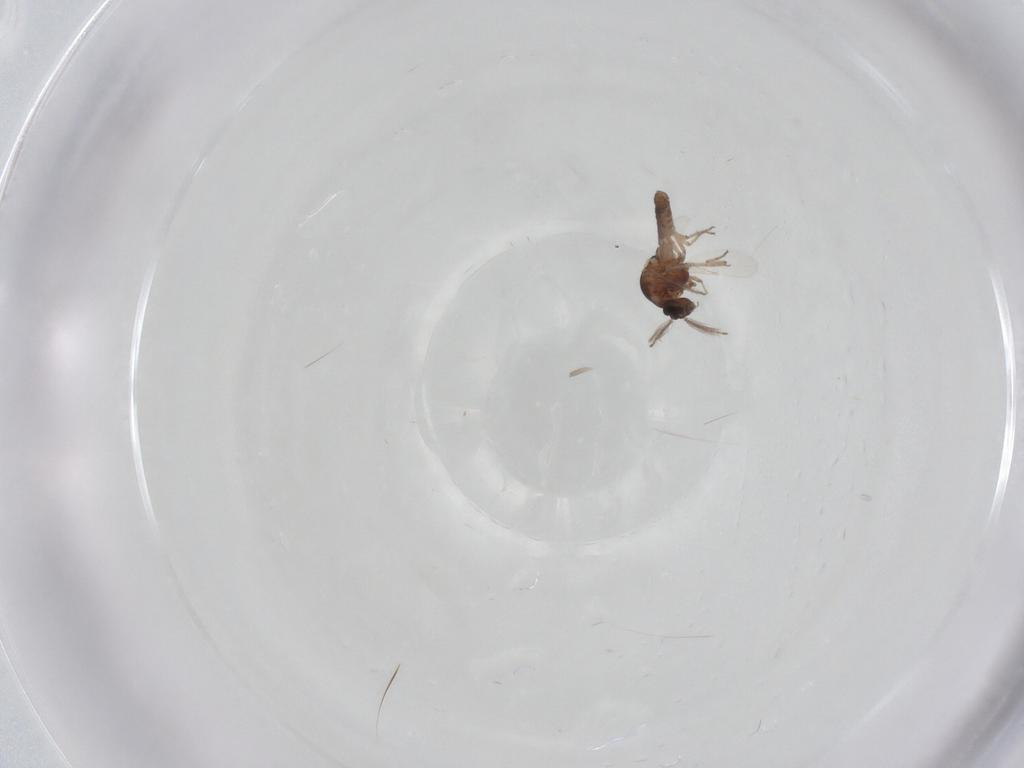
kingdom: Animalia
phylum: Arthropoda
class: Insecta
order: Diptera
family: Ceratopogonidae
